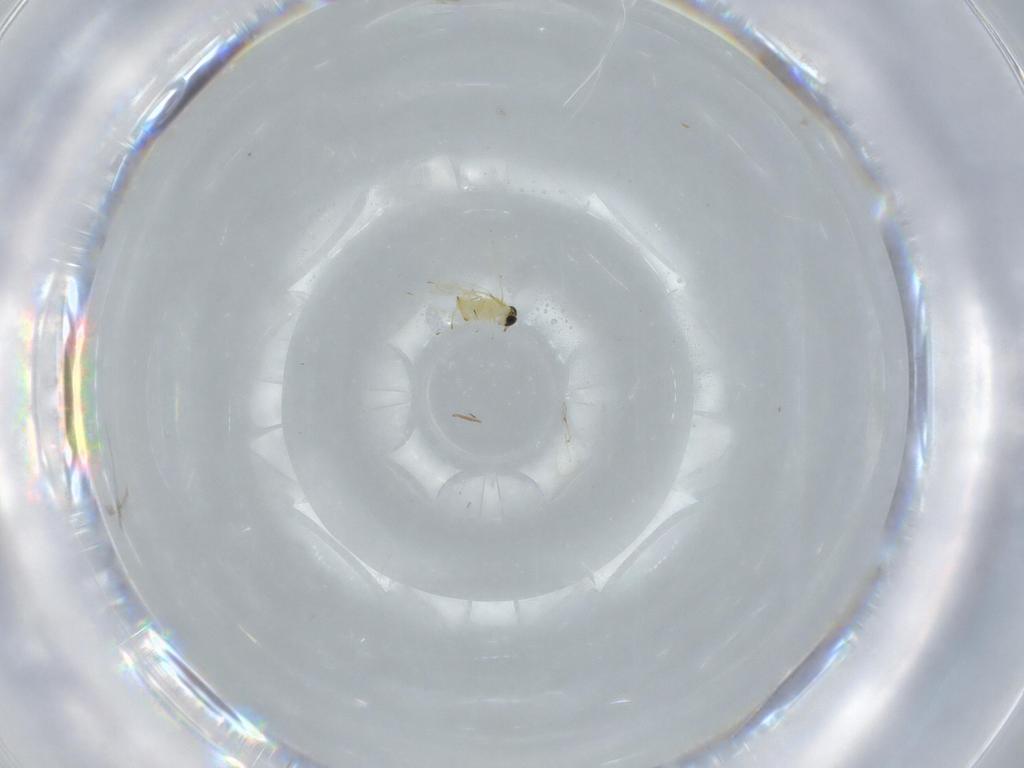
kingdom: Animalia
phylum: Arthropoda
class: Insecta
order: Hymenoptera
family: Trichogrammatidae
